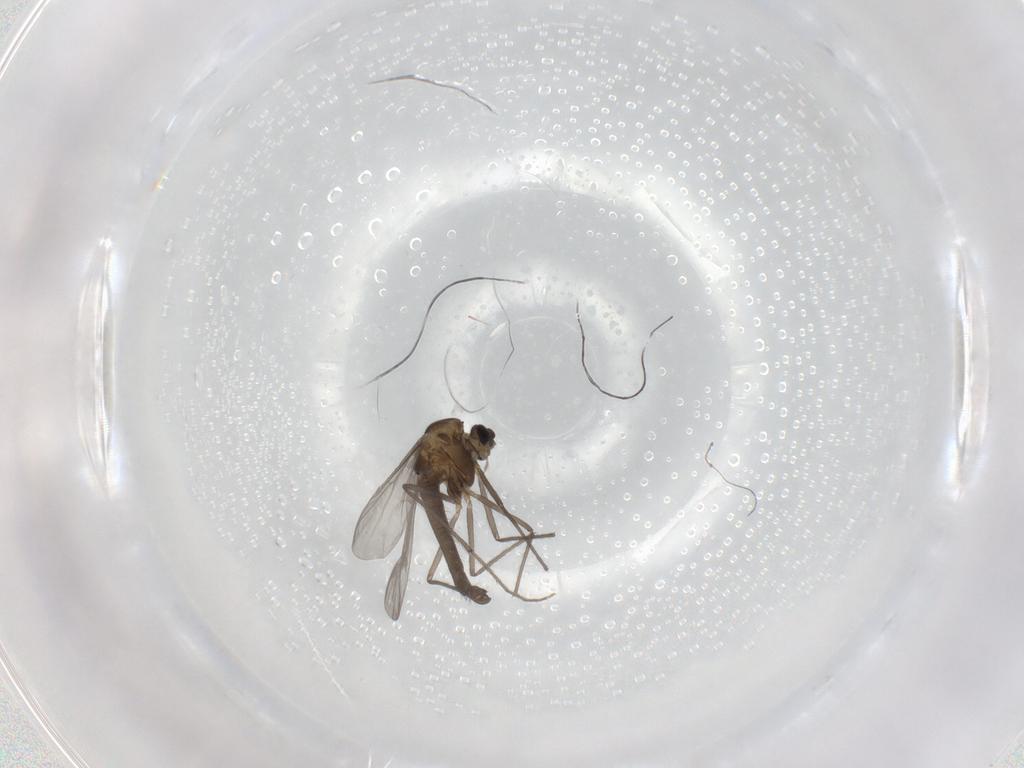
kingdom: Animalia
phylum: Arthropoda
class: Insecta
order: Diptera
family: Chironomidae
